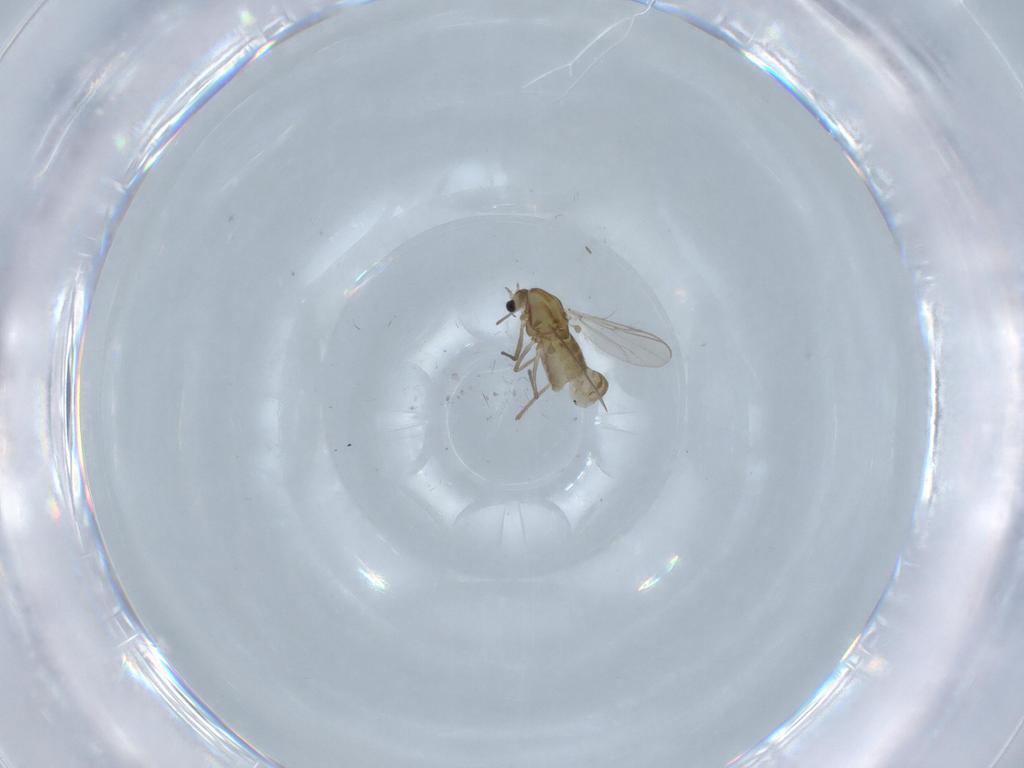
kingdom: Animalia
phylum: Arthropoda
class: Insecta
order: Diptera
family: Chironomidae
